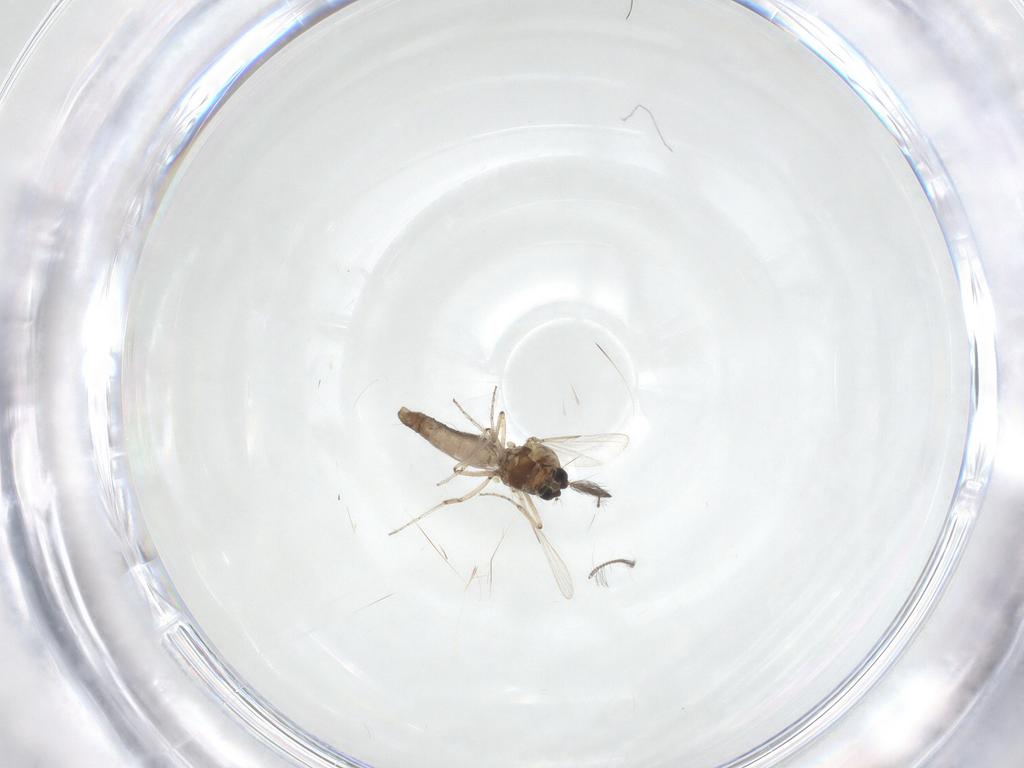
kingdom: Animalia
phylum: Arthropoda
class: Insecta
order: Diptera
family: Ceratopogonidae
